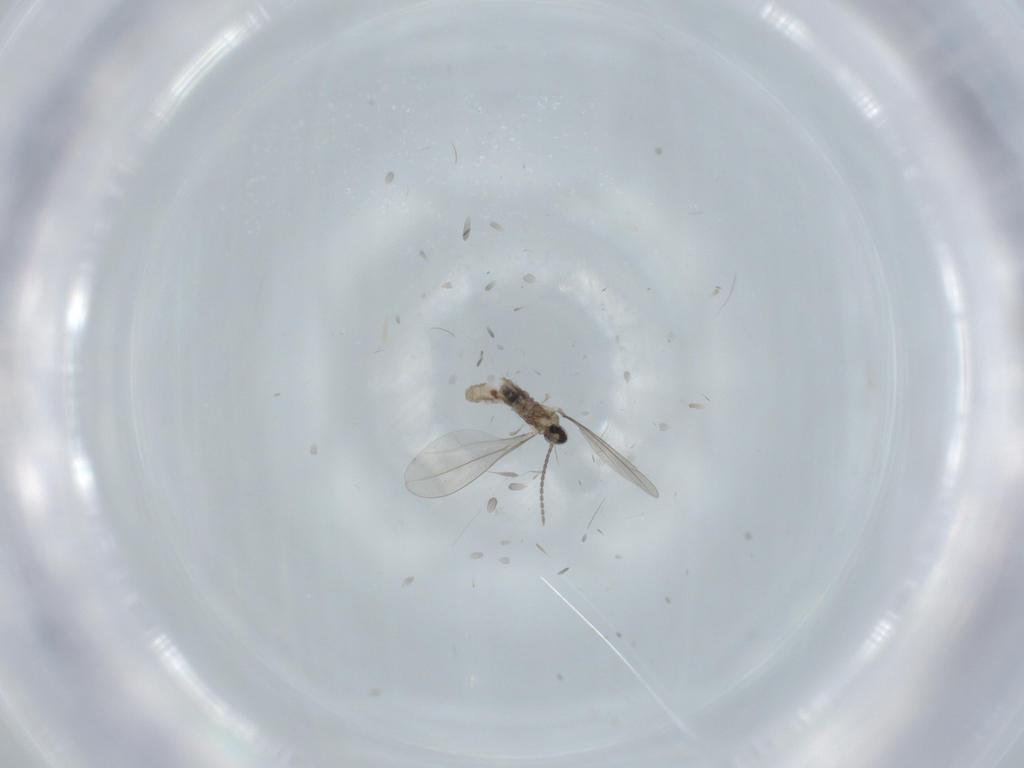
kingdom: Animalia
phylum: Arthropoda
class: Insecta
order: Diptera
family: Cecidomyiidae
